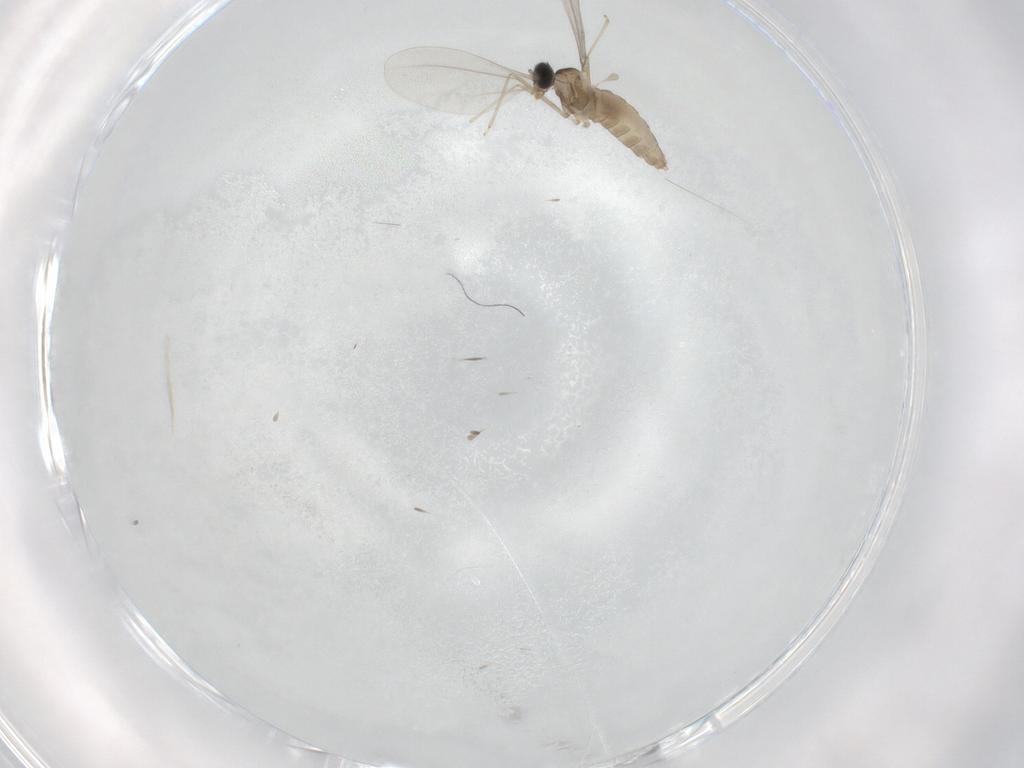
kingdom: Animalia
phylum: Arthropoda
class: Insecta
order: Diptera
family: Cecidomyiidae
